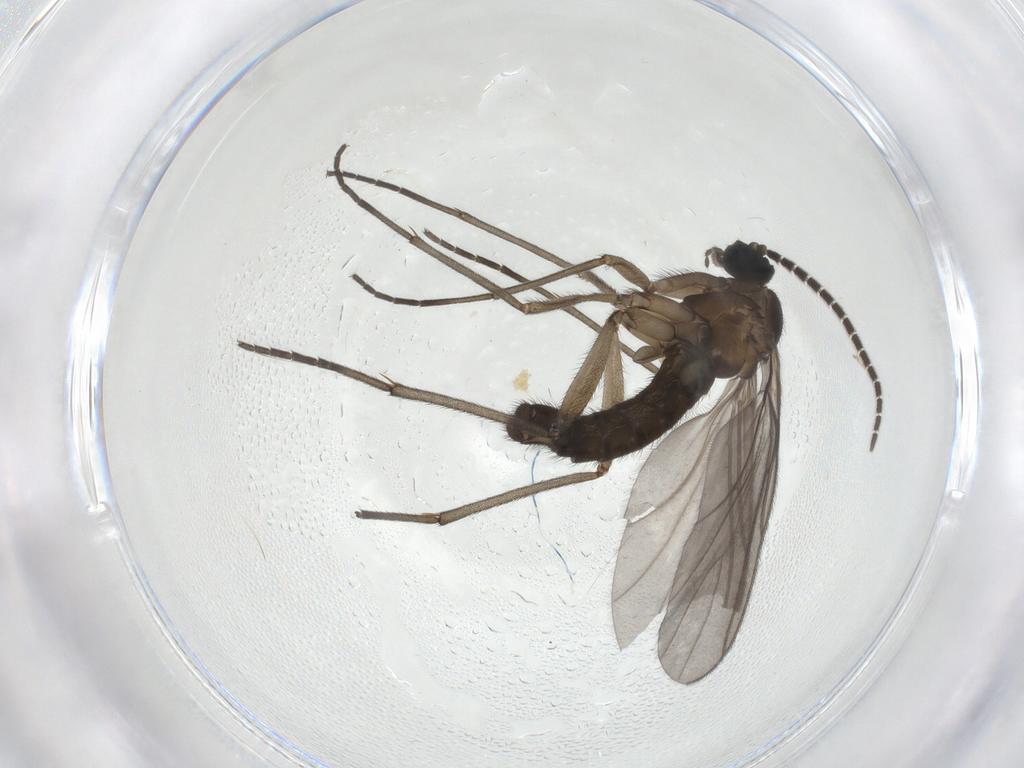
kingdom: Animalia
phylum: Arthropoda
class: Insecta
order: Diptera
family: Sciaridae
